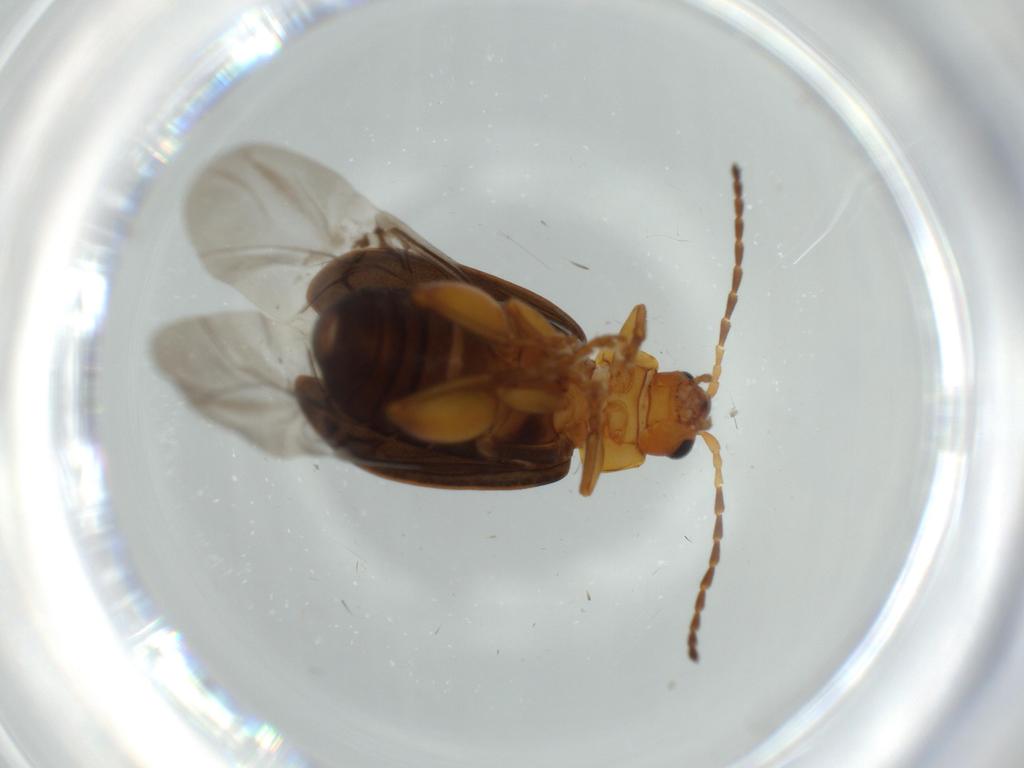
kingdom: Animalia
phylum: Arthropoda
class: Insecta
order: Coleoptera
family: Chrysomelidae
